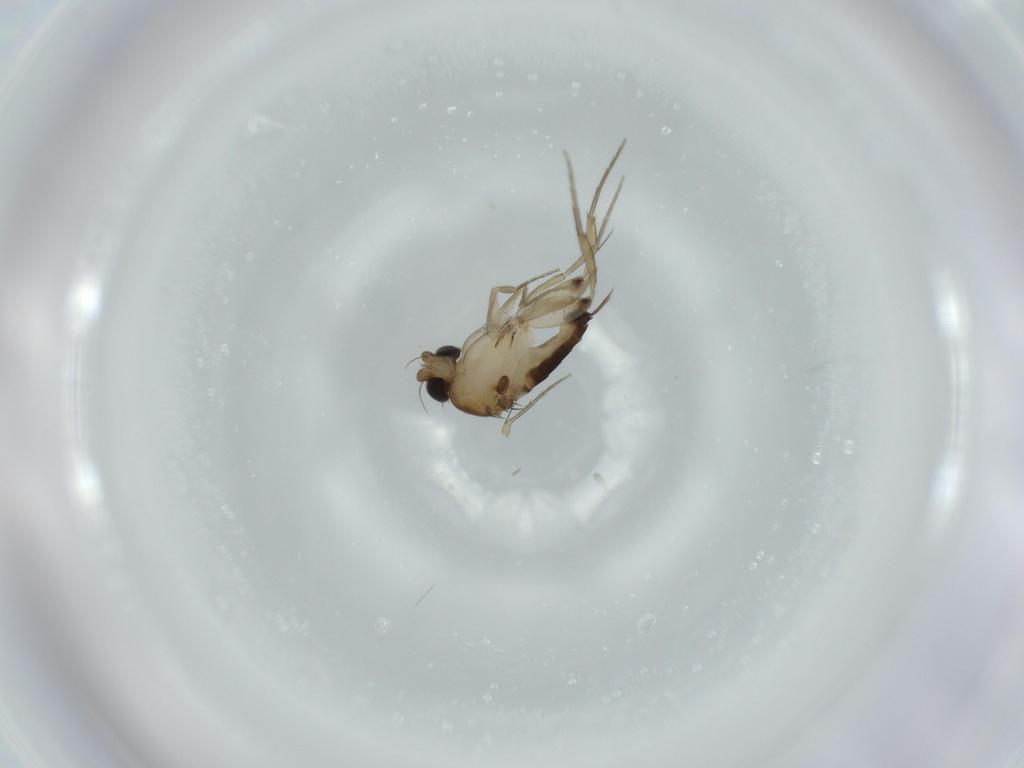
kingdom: Animalia
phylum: Arthropoda
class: Insecta
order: Diptera
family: Phoridae
